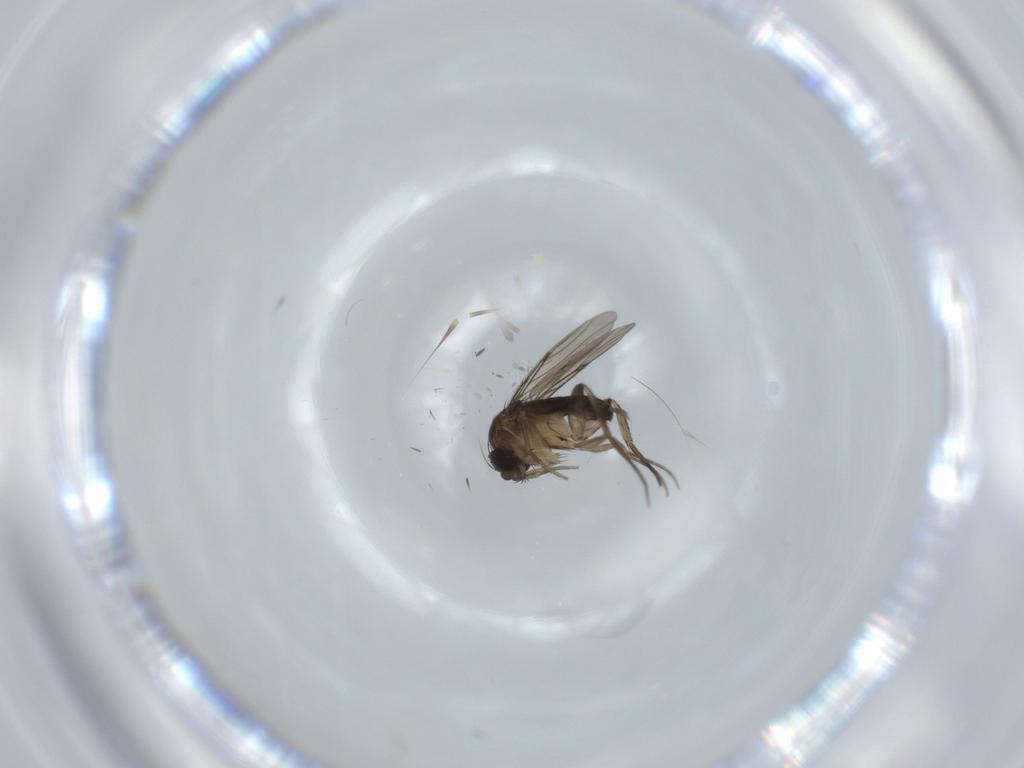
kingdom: Animalia
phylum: Arthropoda
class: Insecta
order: Diptera
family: Phoridae
